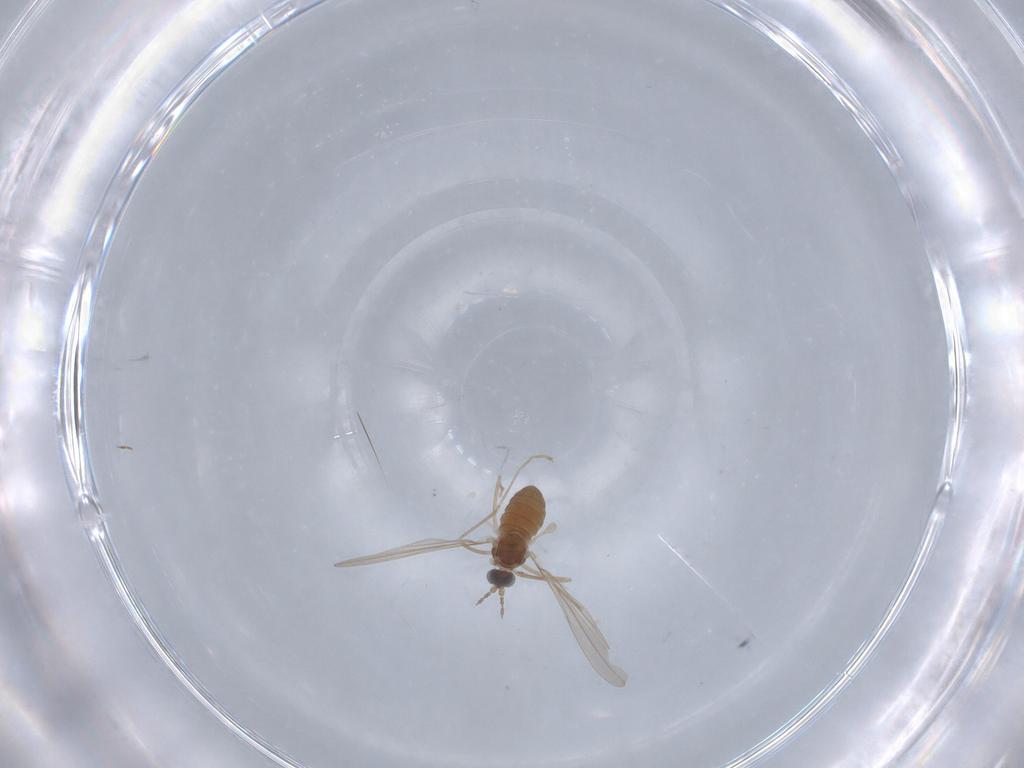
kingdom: Animalia
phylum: Arthropoda
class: Insecta
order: Diptera
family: Cecidomyiidae
